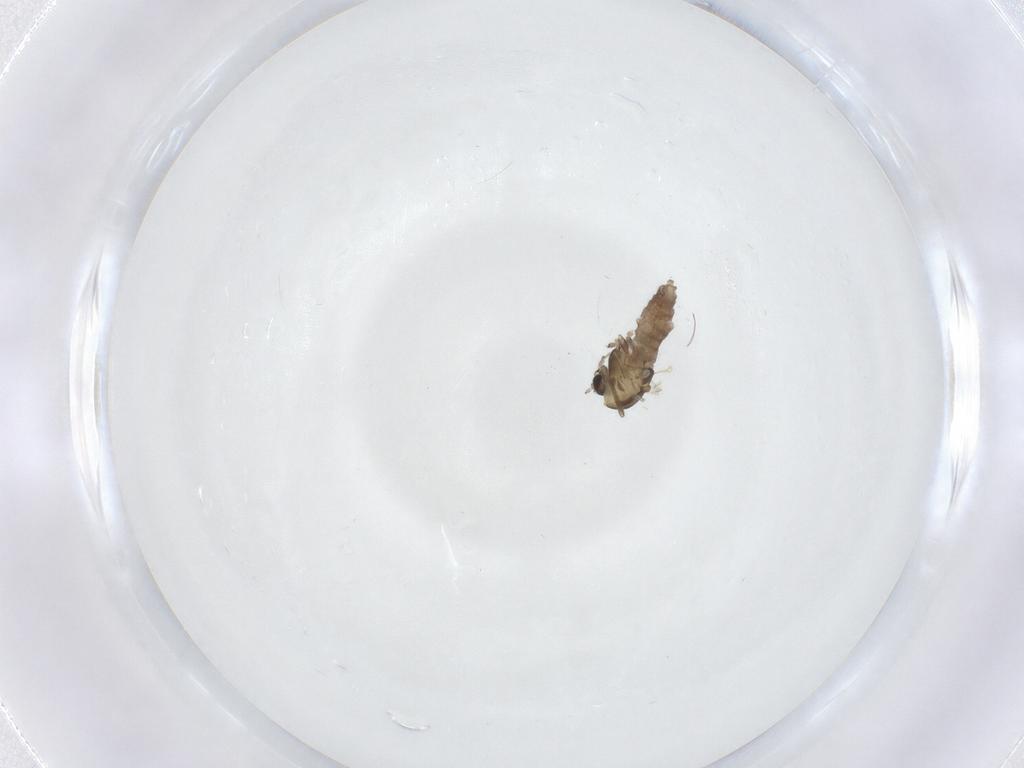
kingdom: Animalia
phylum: Arthropoda
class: Insecta
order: Diptera
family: Chironomidae
